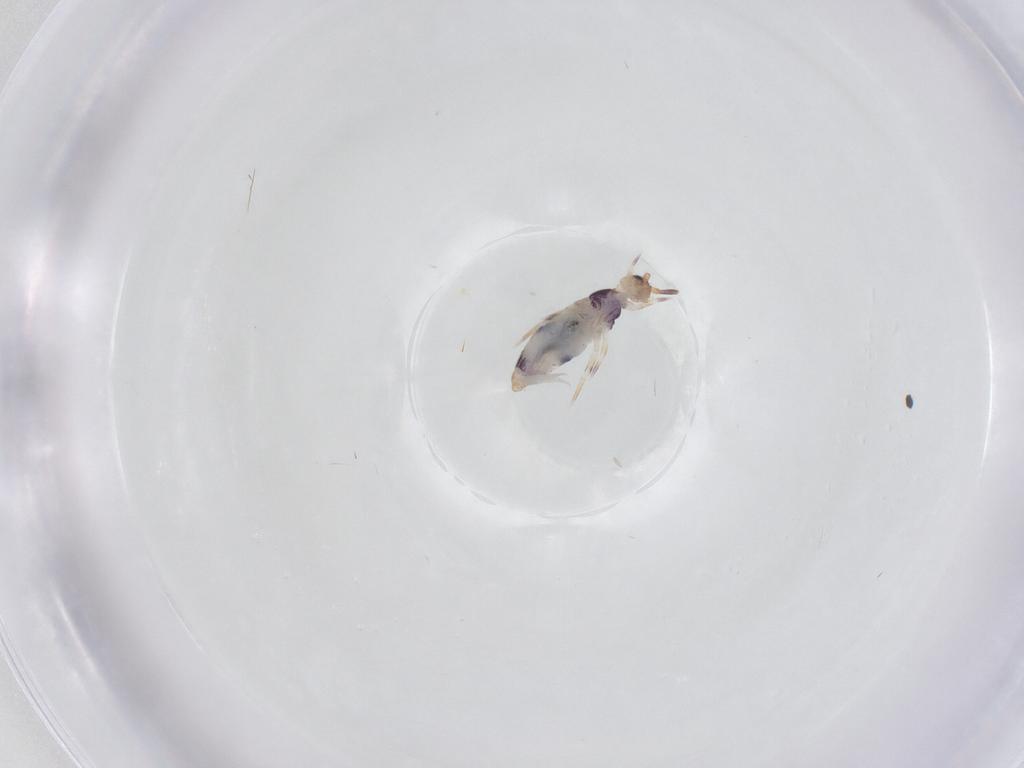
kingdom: Animalia
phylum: Arthropoda
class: Collembola
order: Entomobryomorpha
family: Entomobryidae
